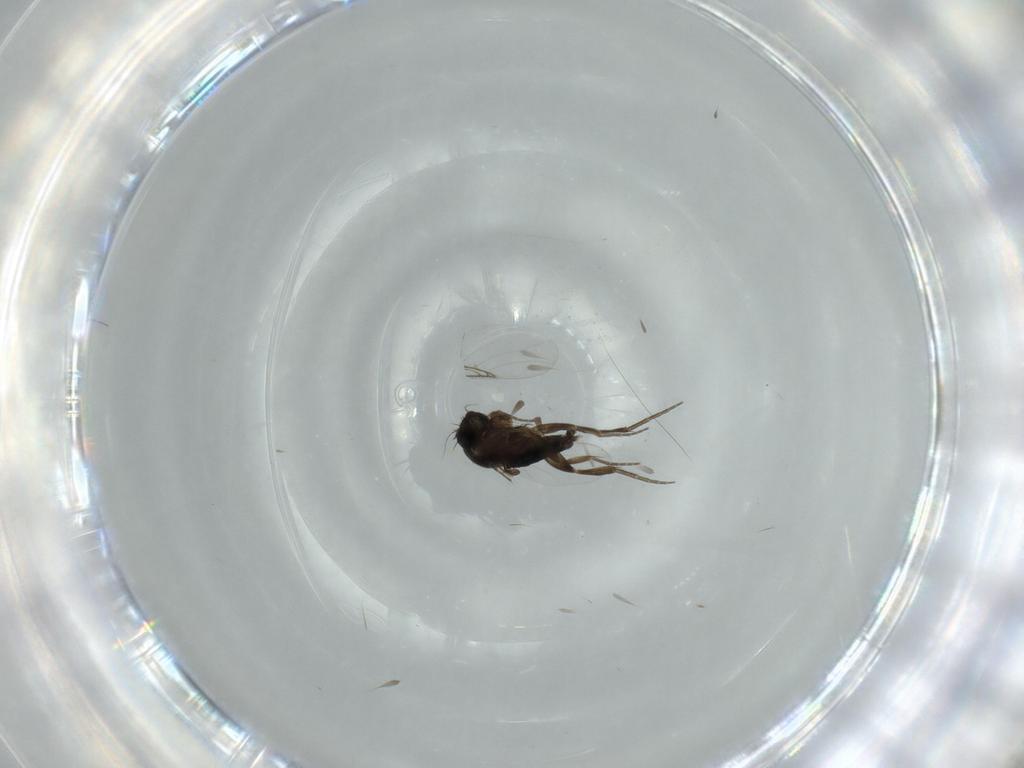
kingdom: Animalia
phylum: Arthropoda
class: Insecta
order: Diptera
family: Phoridae
